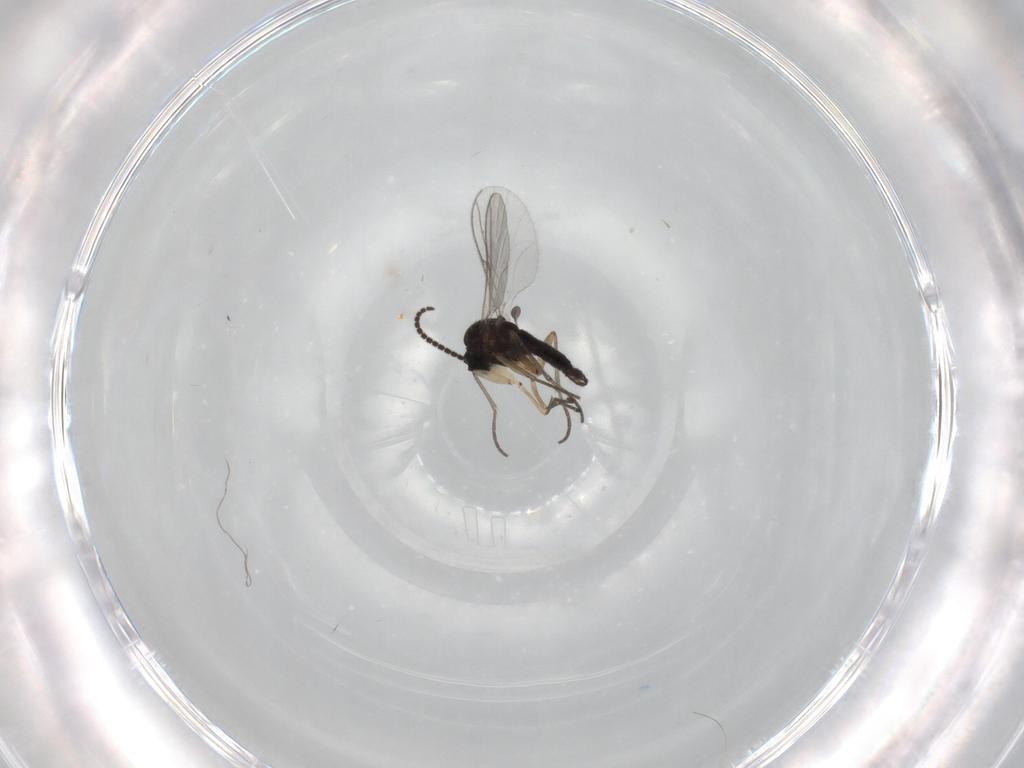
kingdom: Animalia
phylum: Arthropoda
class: Insecta
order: Diptera
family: Sciaridae
